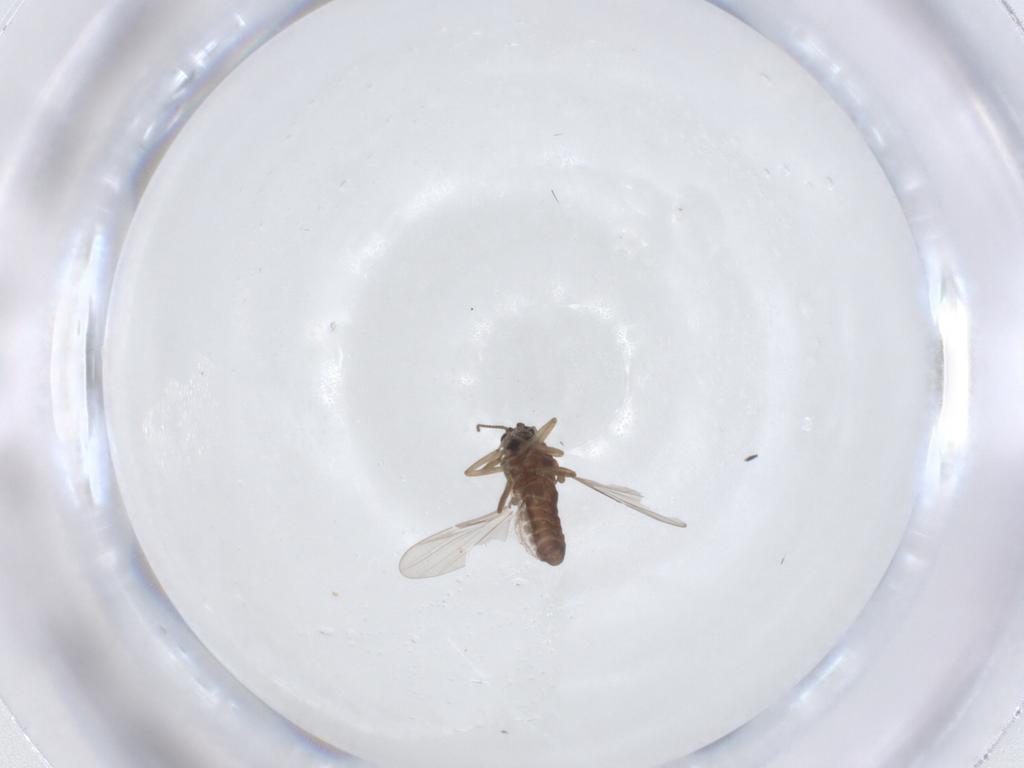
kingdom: Animalia
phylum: Arthropoda
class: Insecta
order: Diptera
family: Ceratopogonidae
